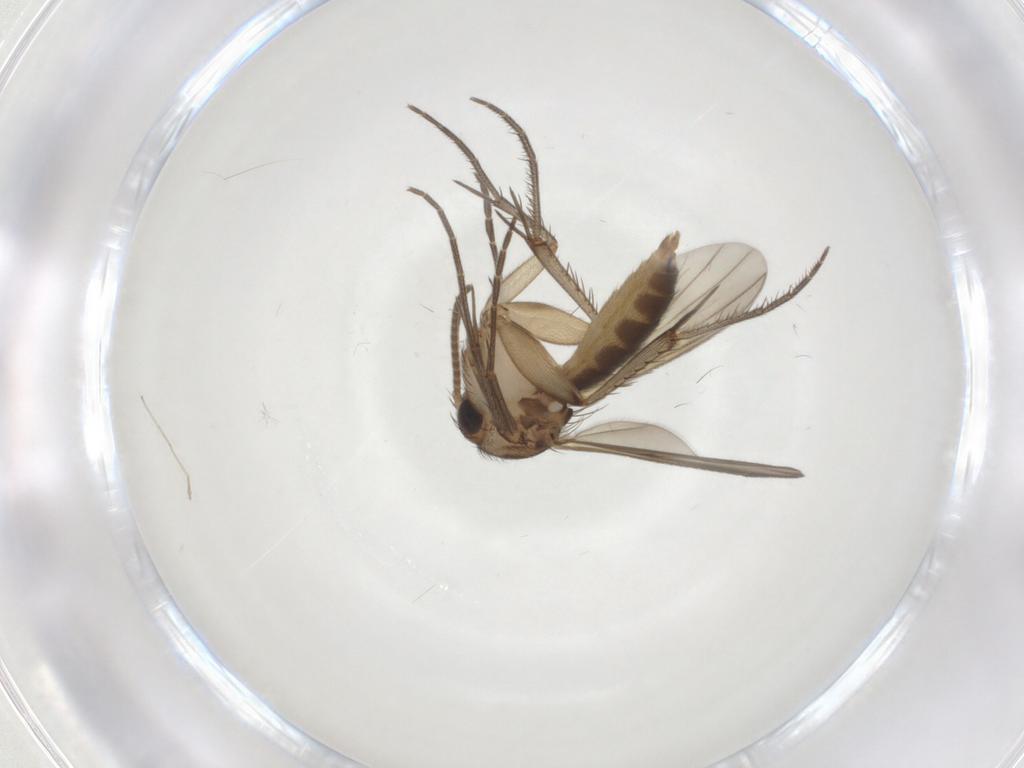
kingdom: Animalia
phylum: Arthropoda
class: Insecta
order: Diptera
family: Mycetophilidae
